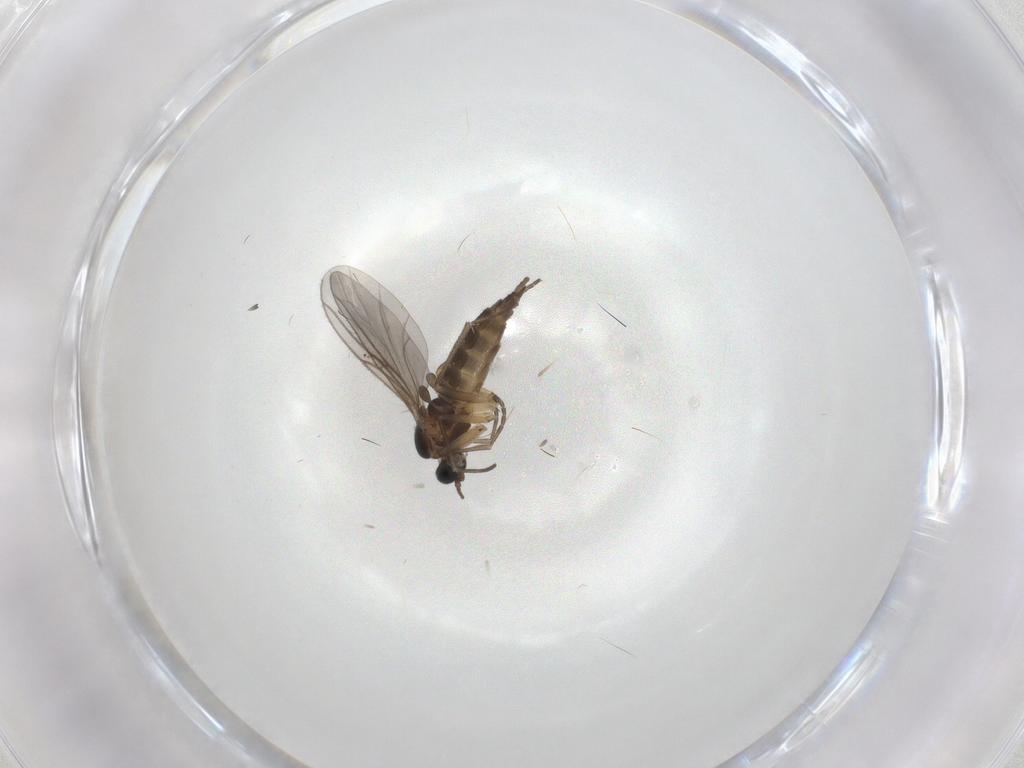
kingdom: Animalia
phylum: Arthropoda
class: Insecta
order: Diptera
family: Sciaridae
